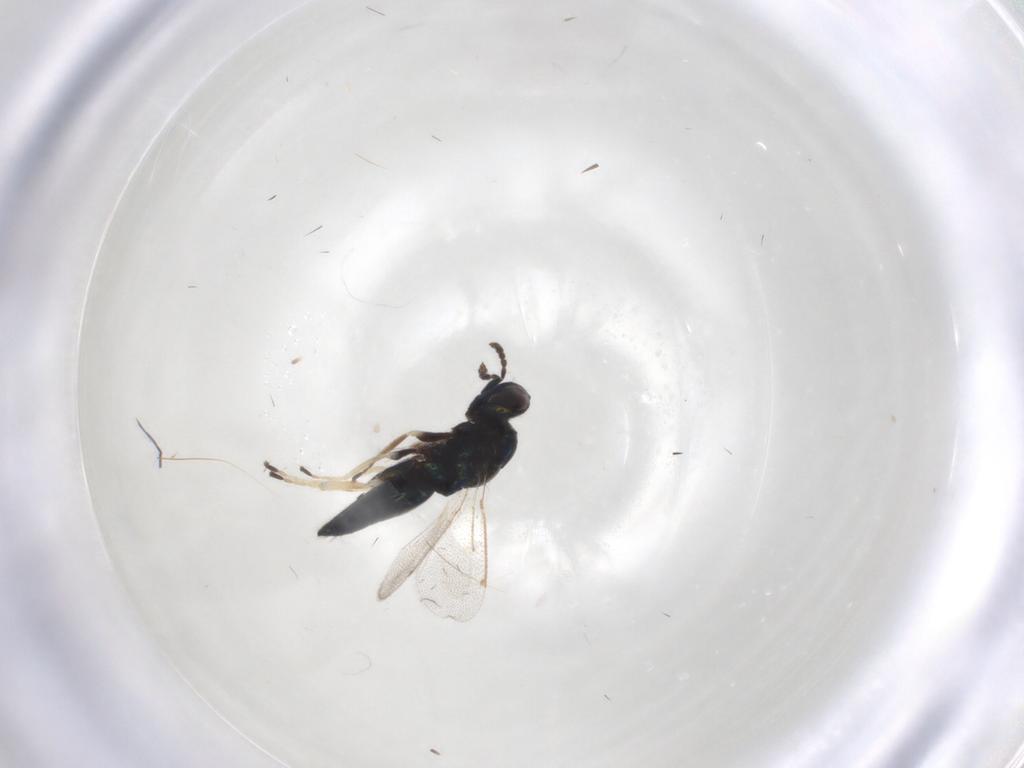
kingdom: Animalia
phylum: Arthropoda
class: Insecta
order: Hymenoptera
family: Eulophidae
